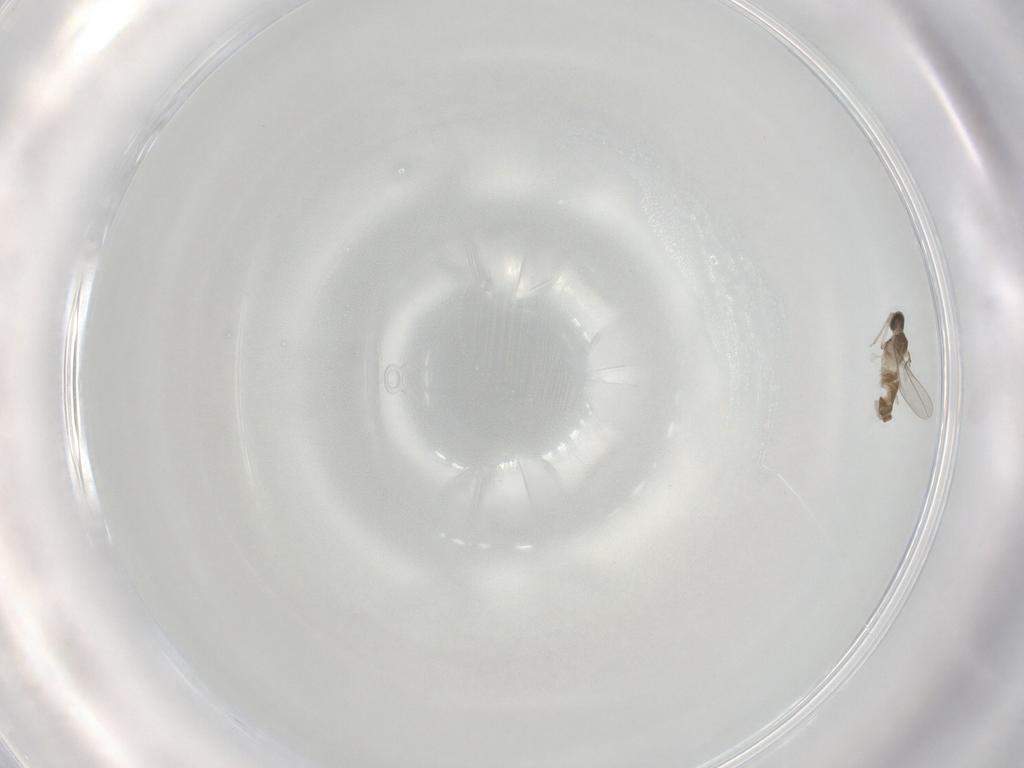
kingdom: Animalia
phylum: Arthropoda
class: Insecta
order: Diptera
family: Cecidomyiidae
